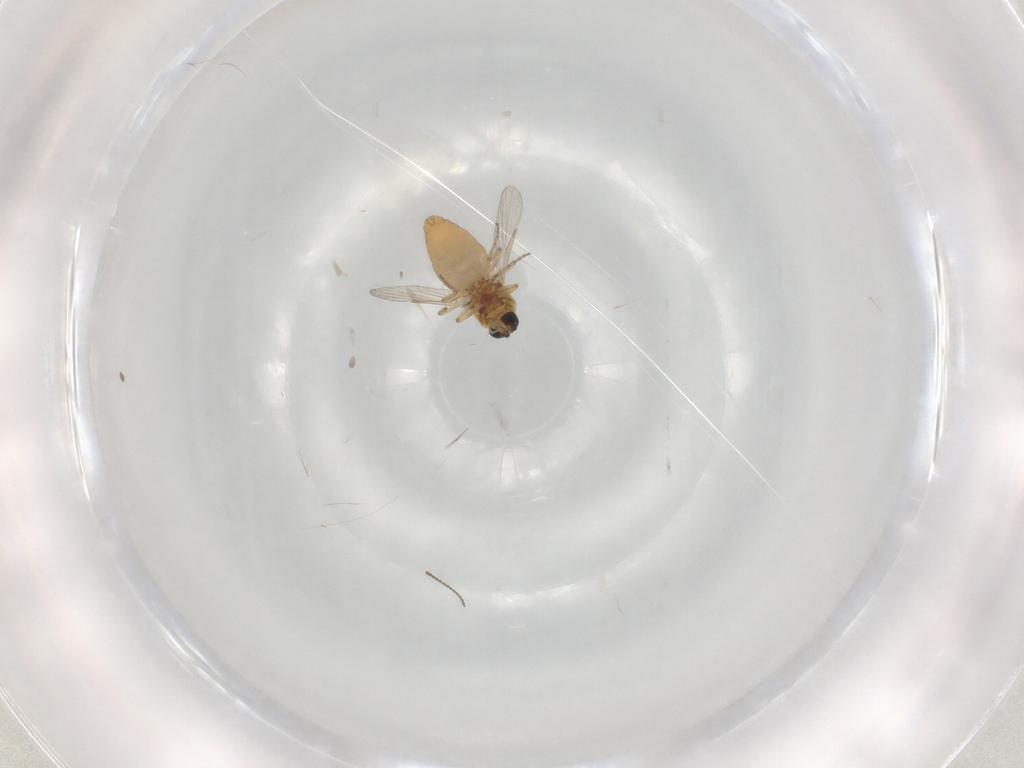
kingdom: Animalia
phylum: Arthropoda
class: Insecta
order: Diptera
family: Ceratopogonidae
